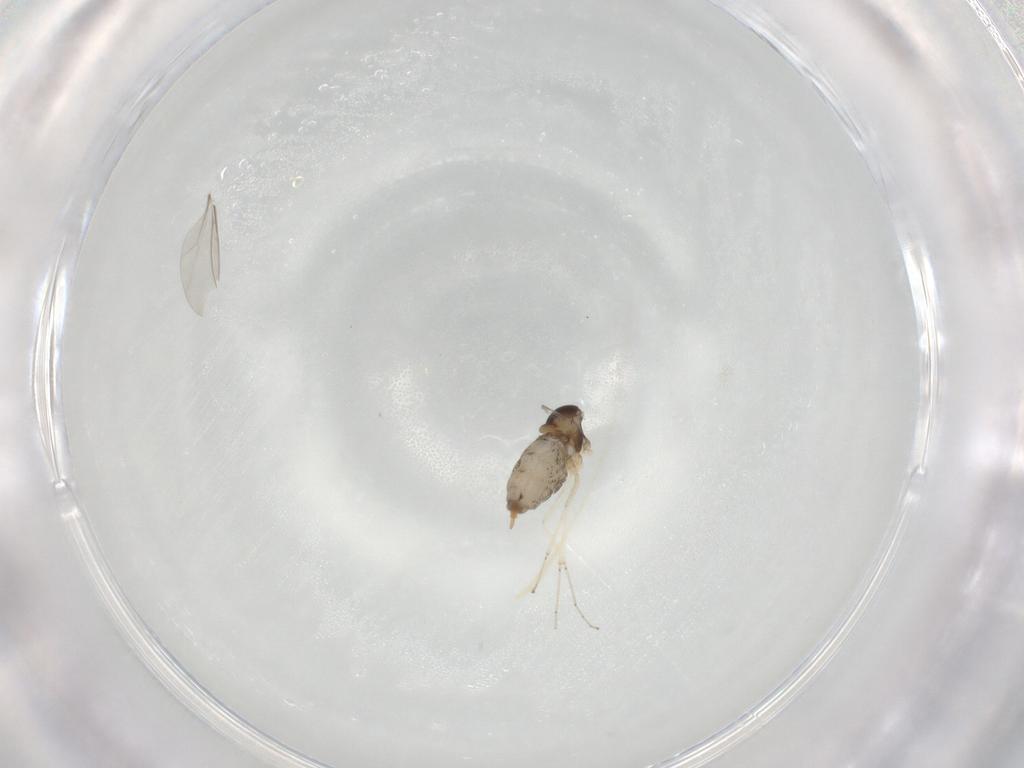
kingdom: Animalia
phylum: Arthropoda
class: Insecta
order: Diptera
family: Cecidomyiidae
